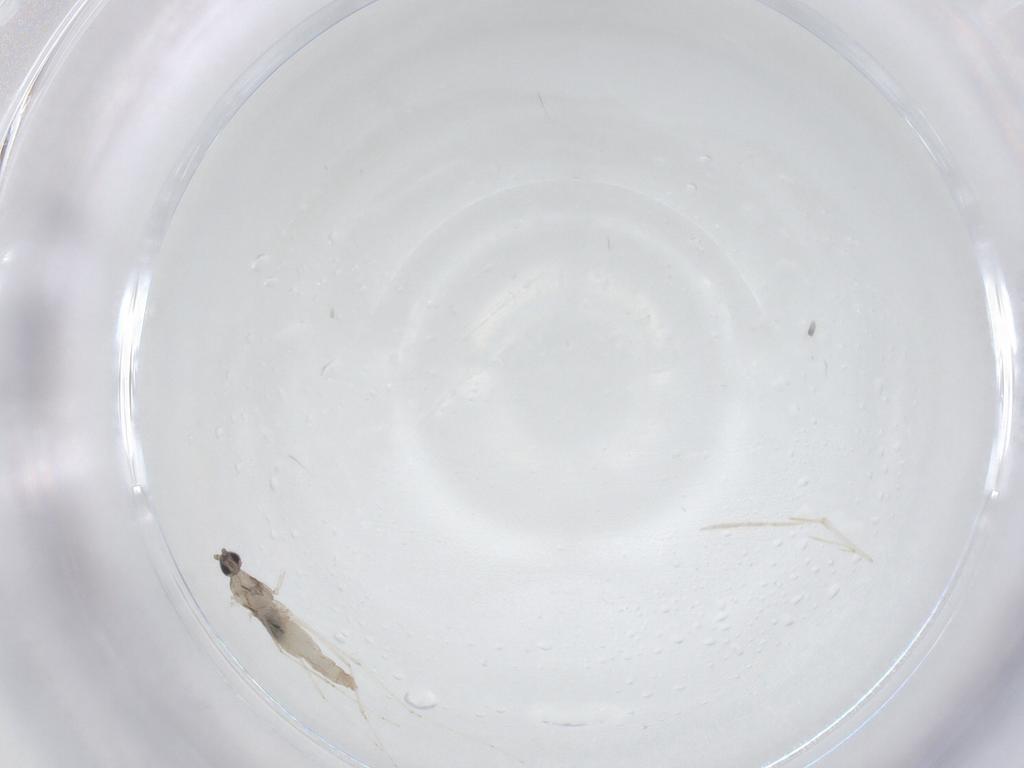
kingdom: Animalia
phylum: Arthropoda
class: Insecta
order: Diptera
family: Cecidomyiidae
